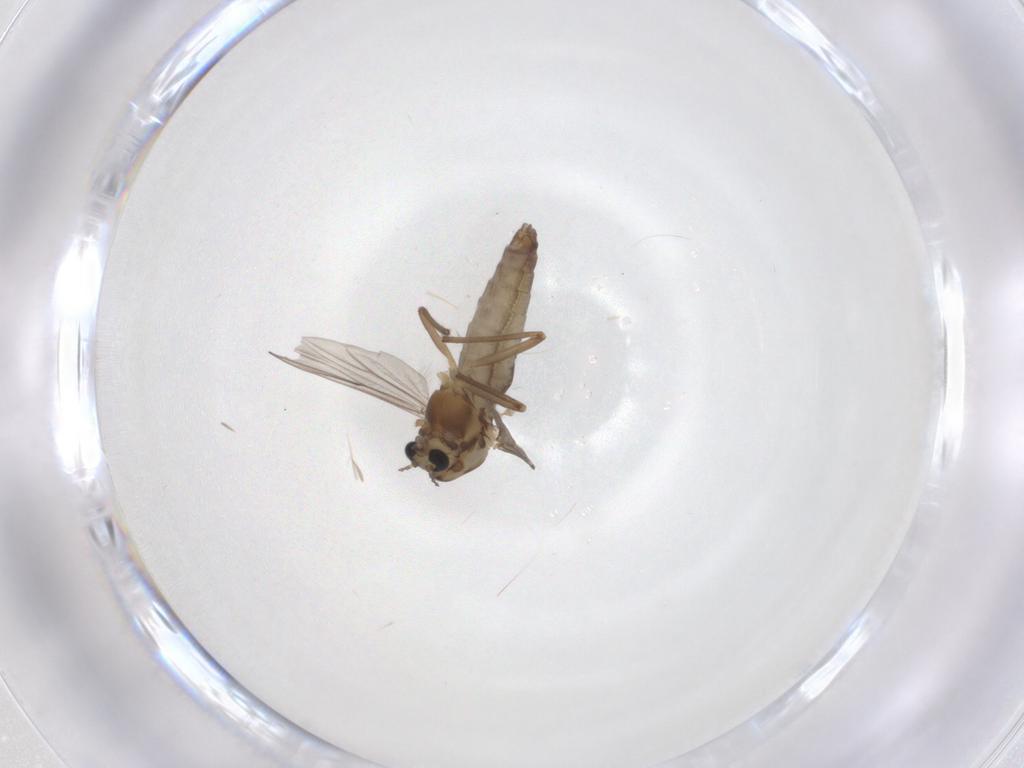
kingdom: Animalia
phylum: Arthropoda
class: Insecta
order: Diptera
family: Chironomidae
